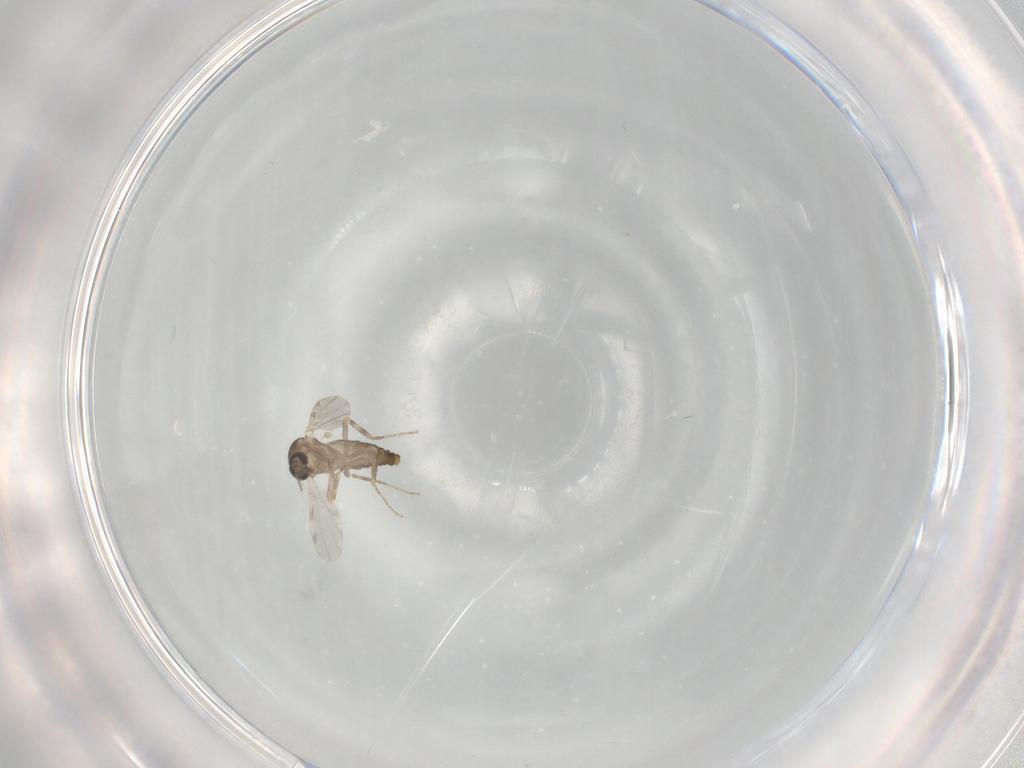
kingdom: Animalia
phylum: Arthropoda
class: Insecta
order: Diptera
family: Ceratopogonidae
